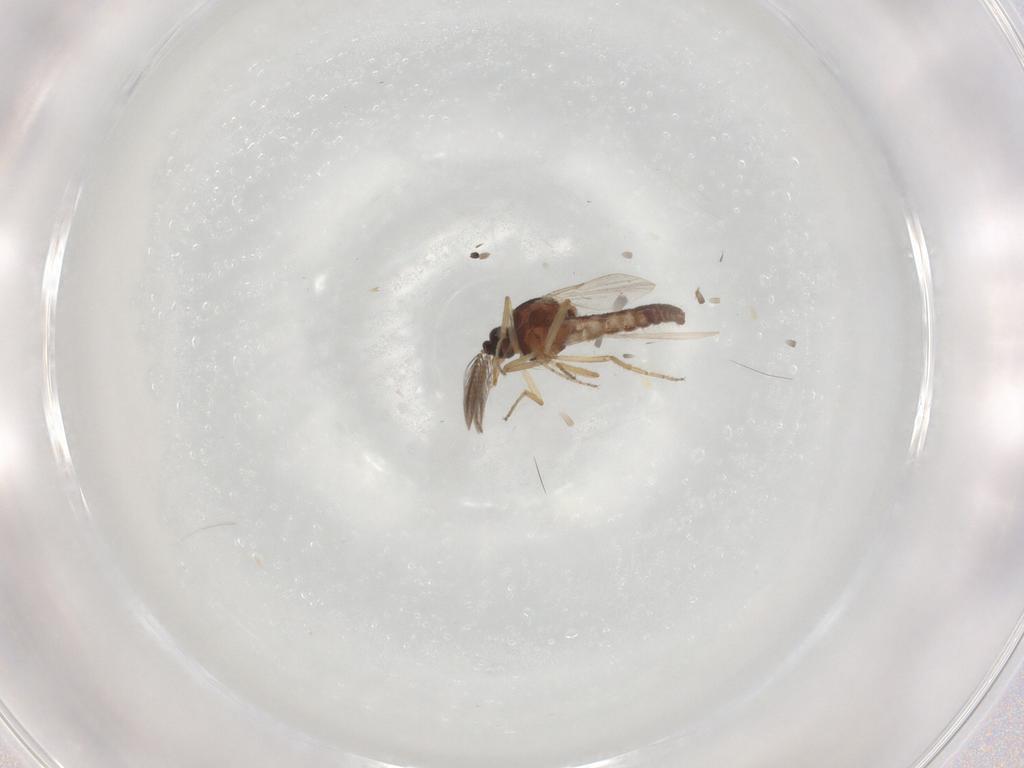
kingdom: Animalia
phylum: Arthropoda
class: Insecta
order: Diptera
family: Ceratopogonidae
